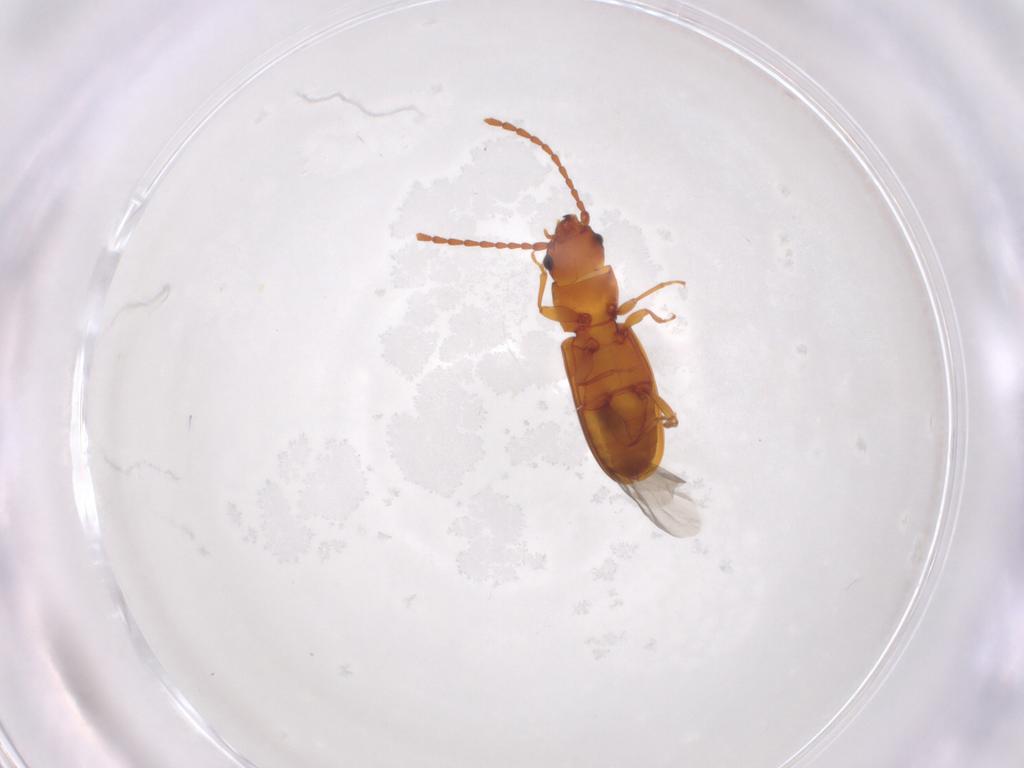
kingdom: Animalia
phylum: Arthropoda
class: Insecta
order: Coleoptera
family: Laemophloeidae
